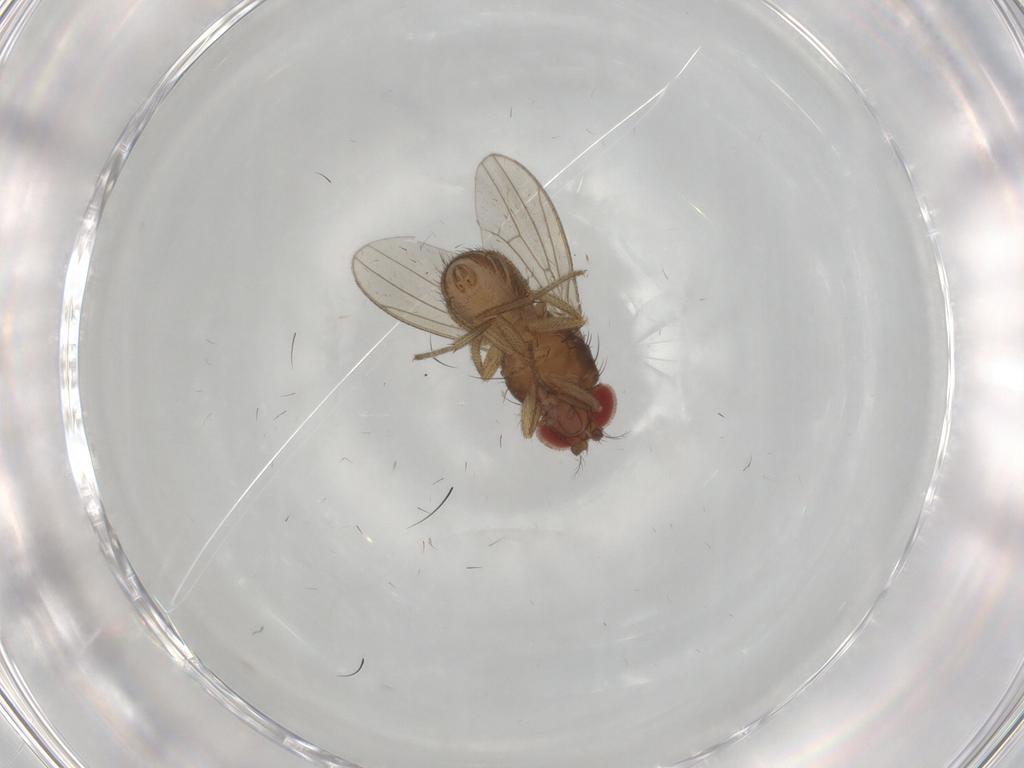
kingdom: Animalia
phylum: Arthropoda
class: Insecta
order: Diptera
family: Drosophilidae
